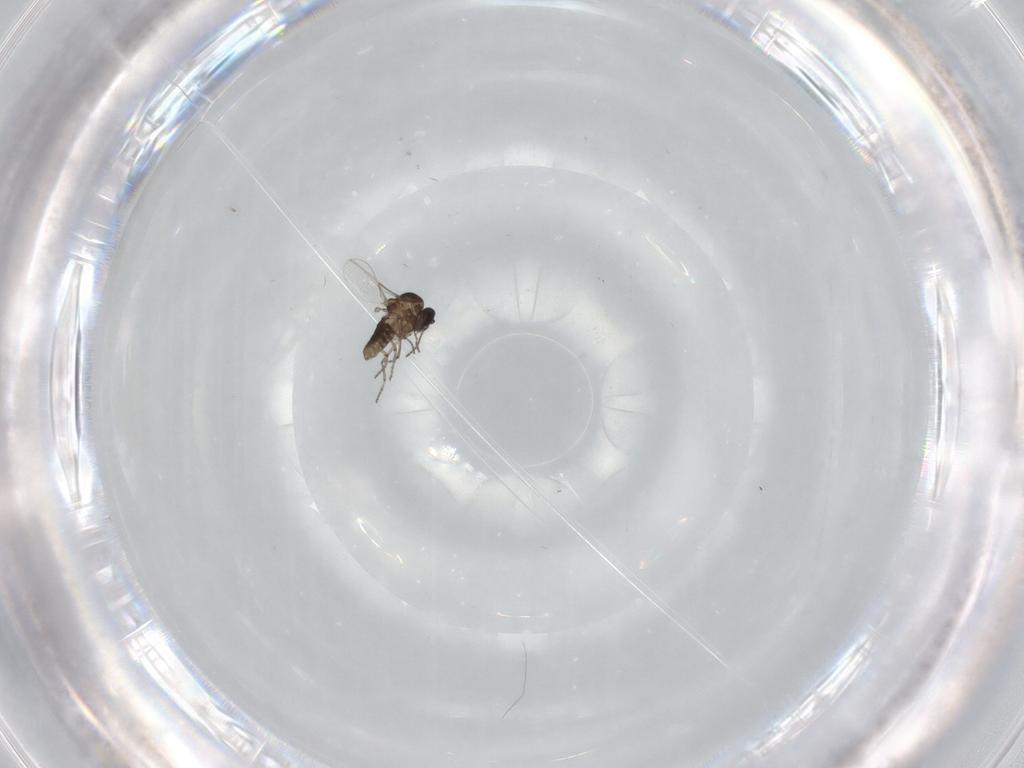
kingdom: Animalia
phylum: Arthropoda
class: Insecta
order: Diptera
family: Ceratopogonidae
